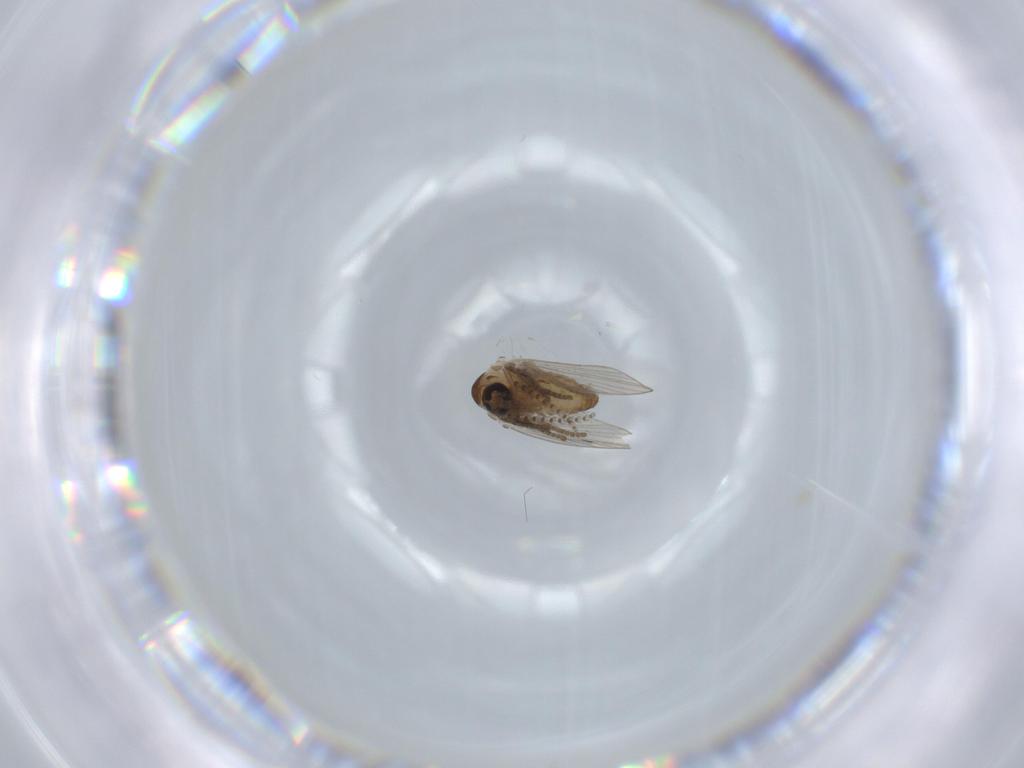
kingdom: Animalia
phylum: Arthropoda
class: Insecta
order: Diptera
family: Psychodidae
